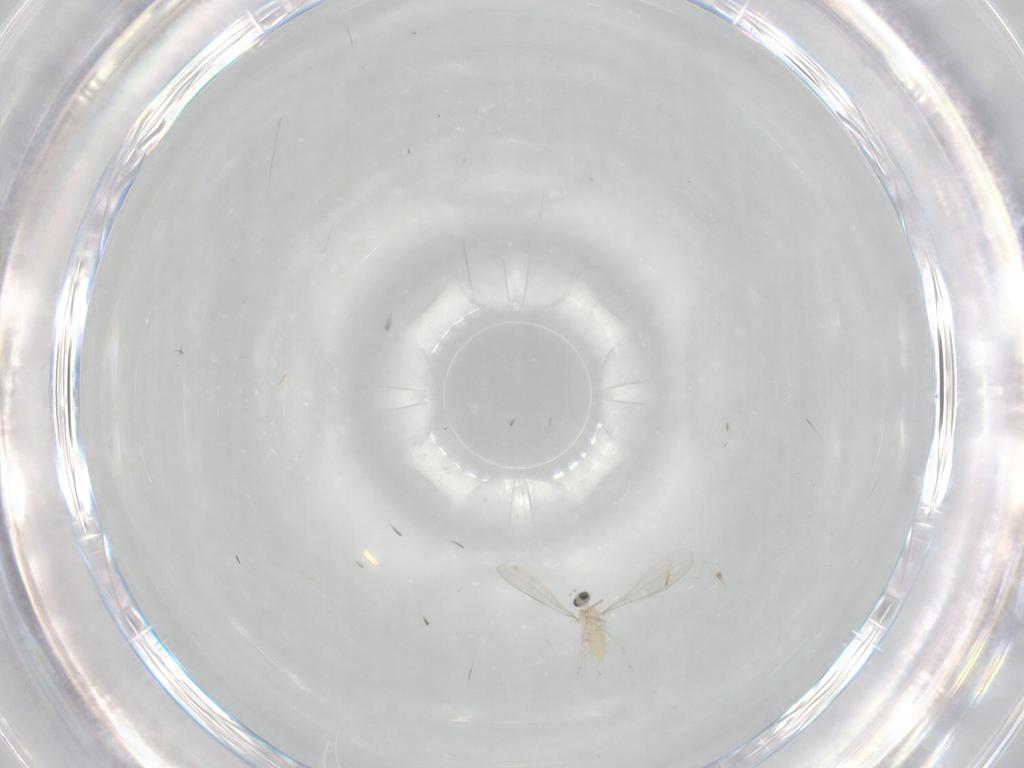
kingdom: Animalia
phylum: Arthropoda
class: Insecta
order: Diptera
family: Cecidomyiidae
